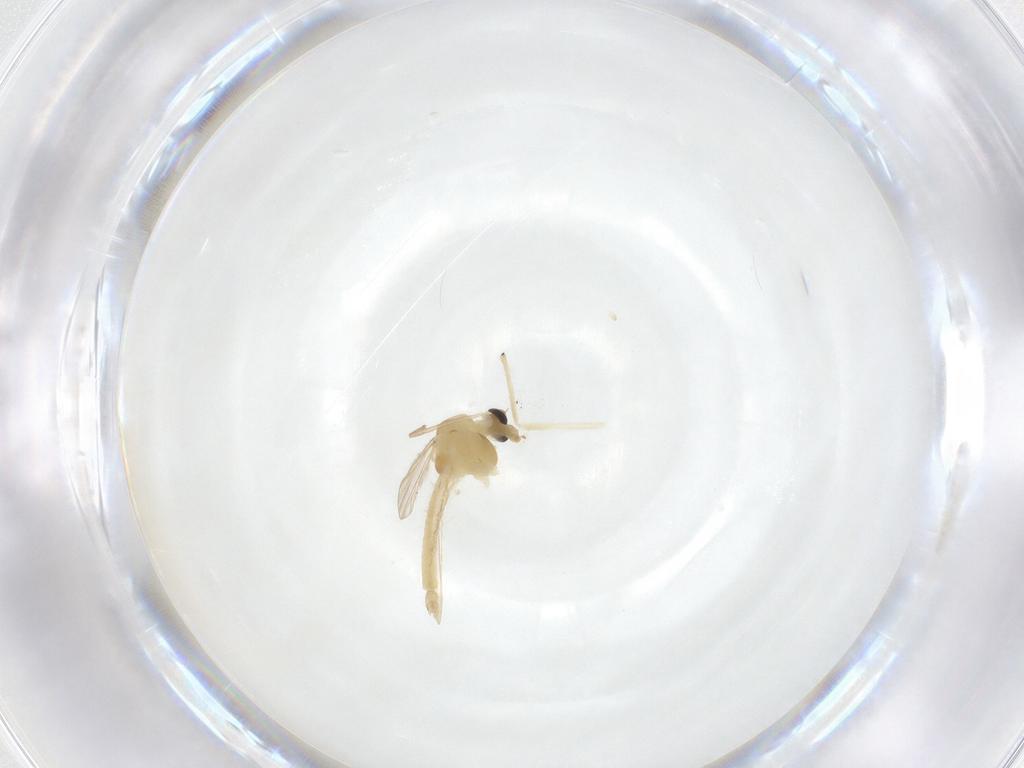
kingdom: Animalia
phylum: Arthropoda
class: Insecta
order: Diptera
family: Chironomidae
